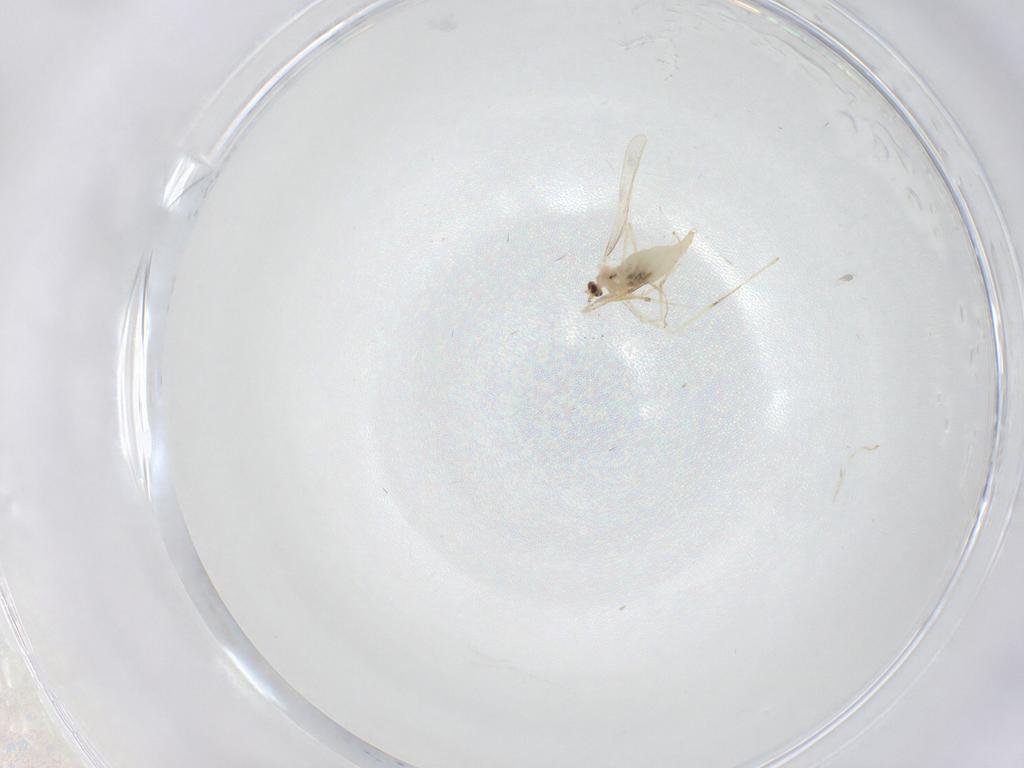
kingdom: Animalia
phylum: Arthropoda
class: Insecta
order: Diptera
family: Cecidomyiidae
